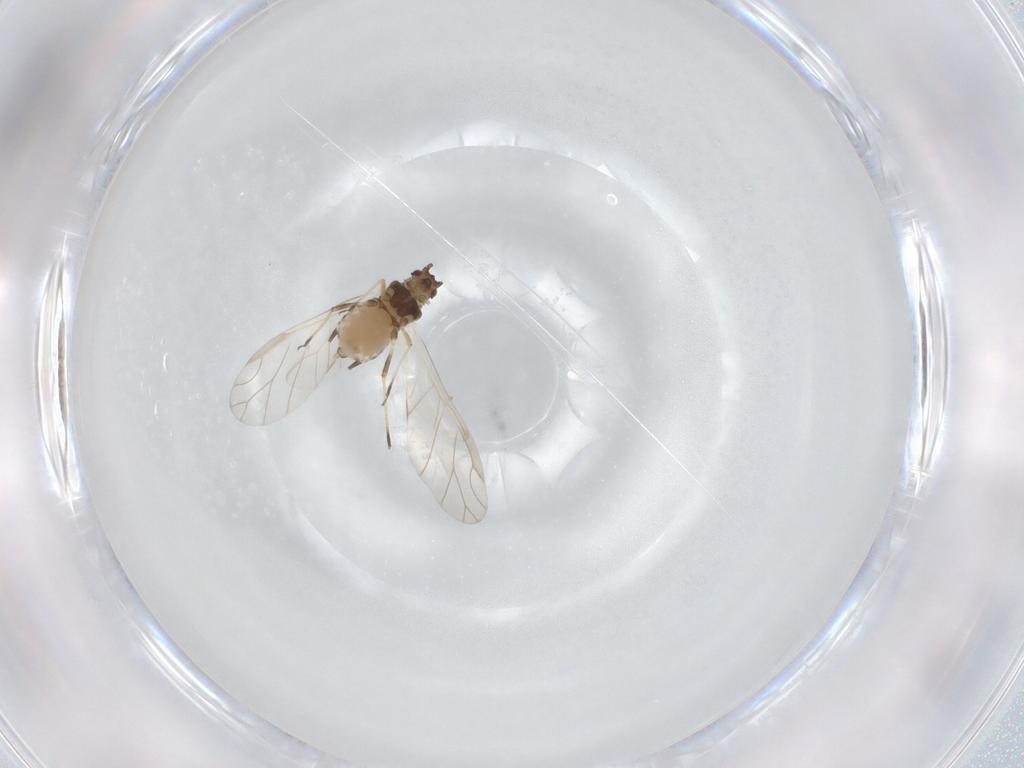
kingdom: Animalia
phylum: Arthropoda
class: Insecta
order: Hemiptera
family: Aphididae
